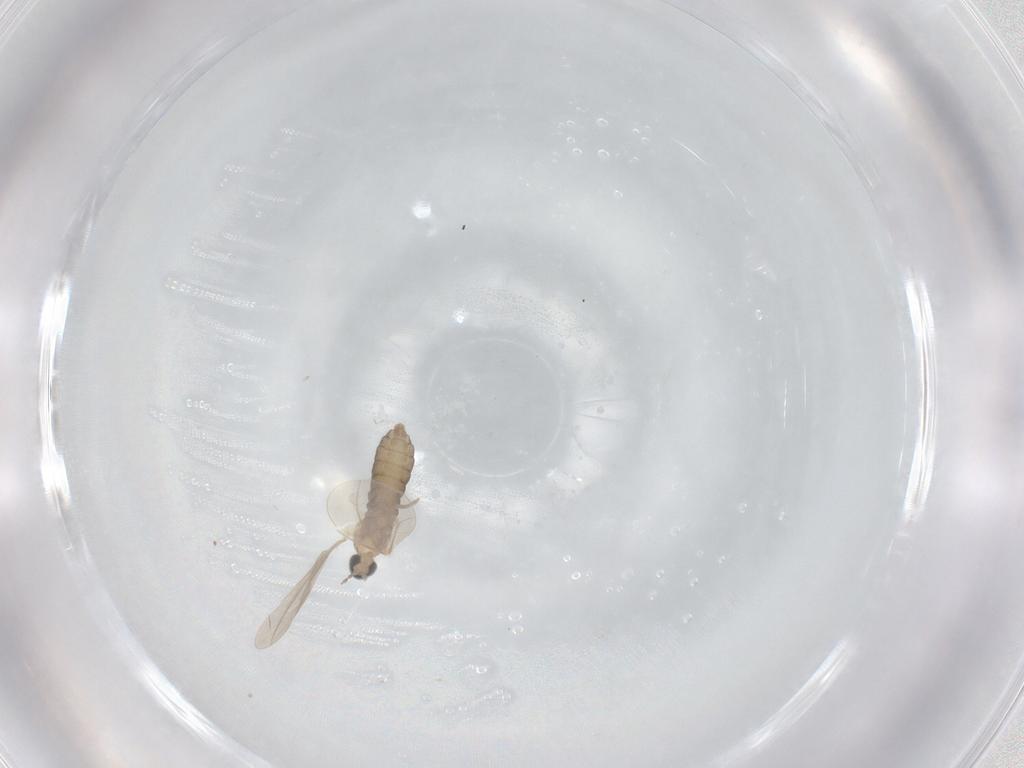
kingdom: Animalia
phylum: Arthropoda
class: Insecta
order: Diptera
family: Cecidomyiidae
